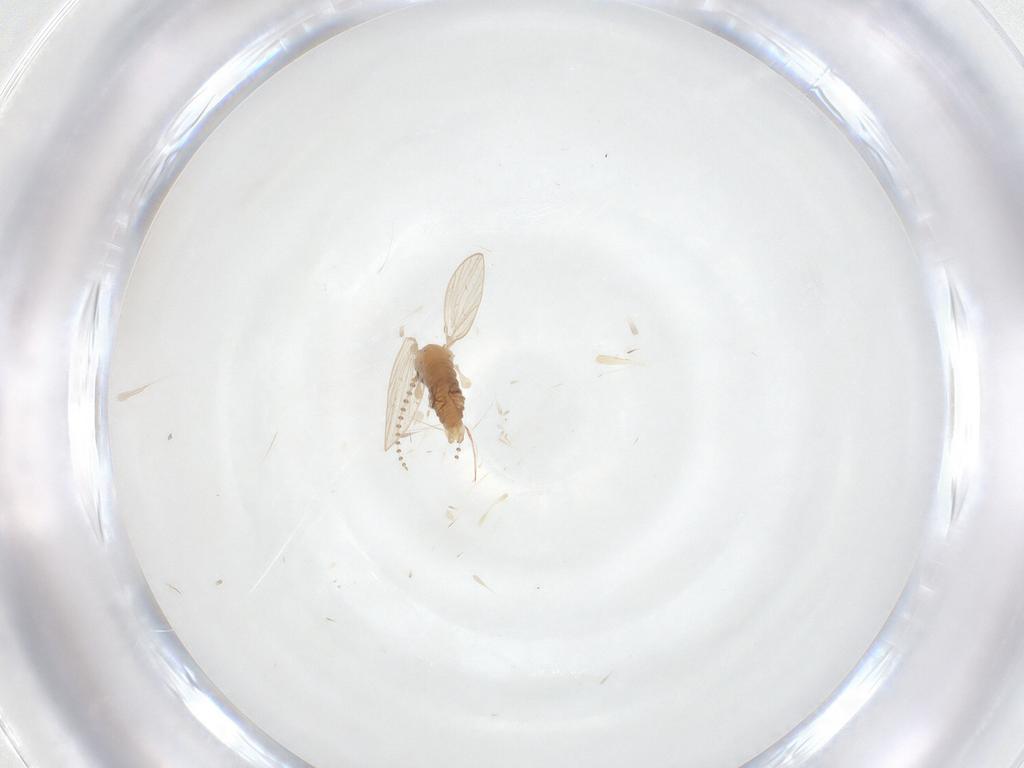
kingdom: Animalia
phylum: Arthropoda
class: Insecta
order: Diptera
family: Psychodidae
